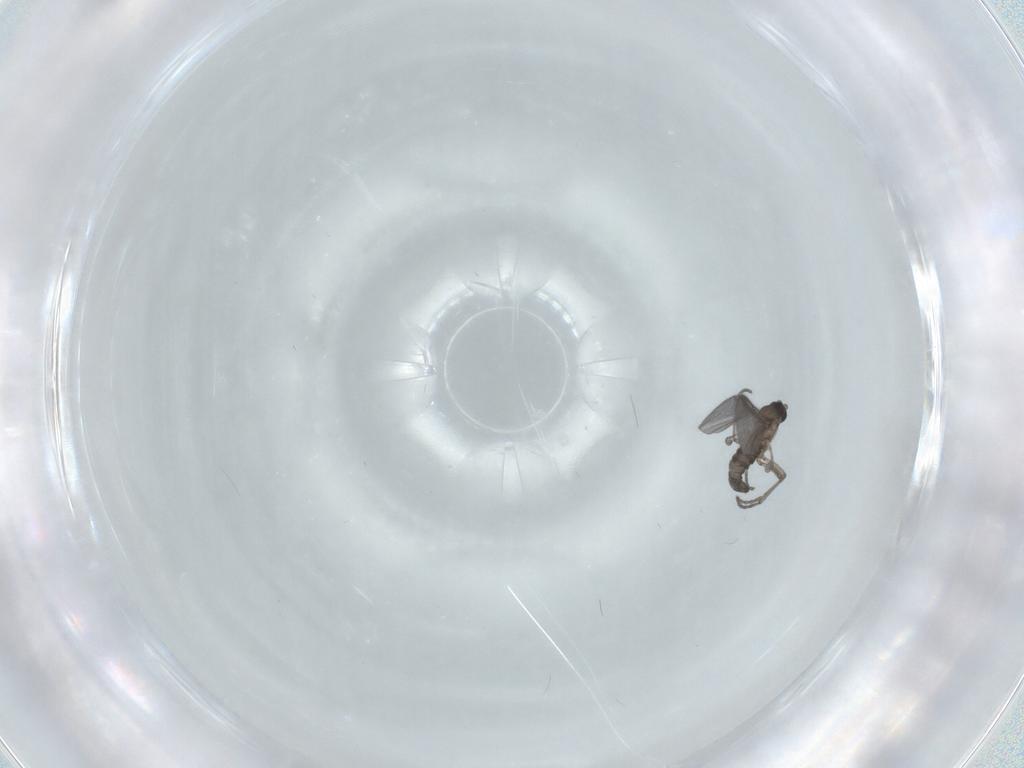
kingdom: Animalia
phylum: Arthropoda
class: Insecta
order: Diptera
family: Sciaridae
